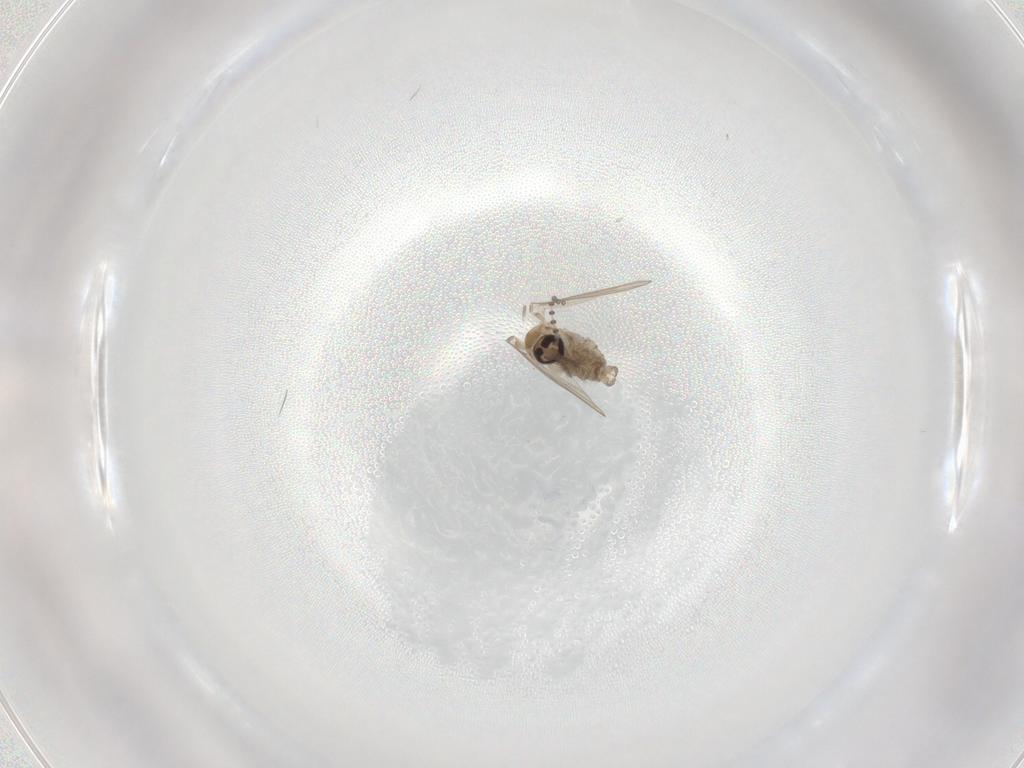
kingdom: Animalia
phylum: Arthropoda
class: Insecta
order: Diptera
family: Psychodidae
